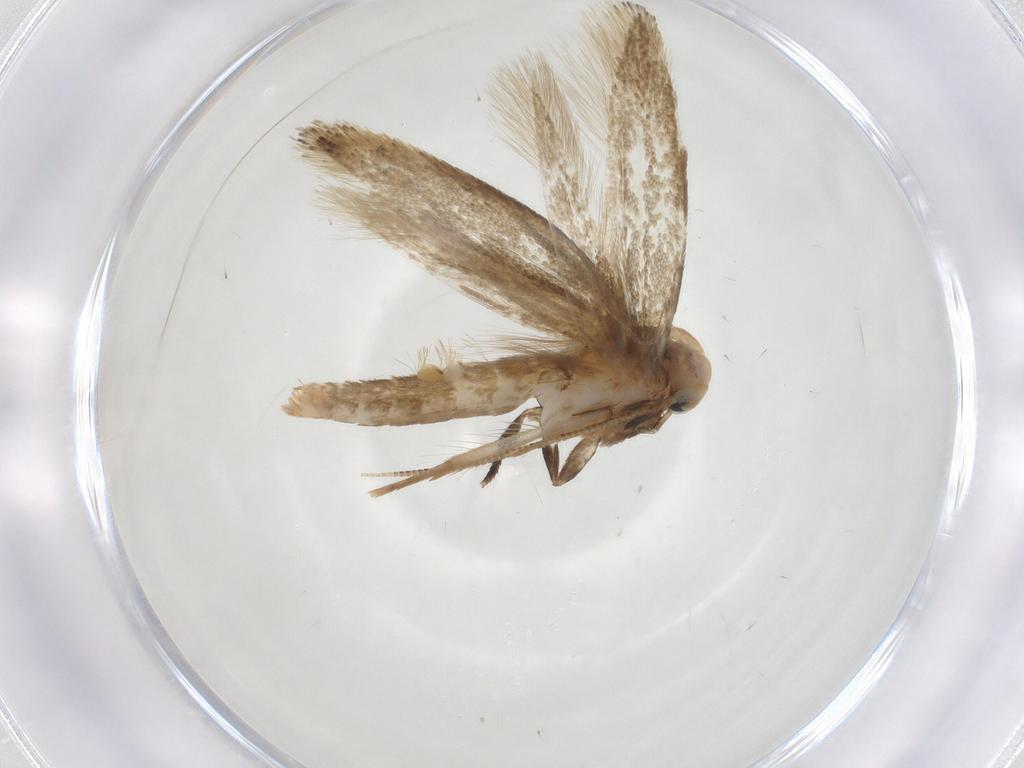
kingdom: Animalia
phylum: Arthropoda
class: Insecta
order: Lepidoptera
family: Tineidae
